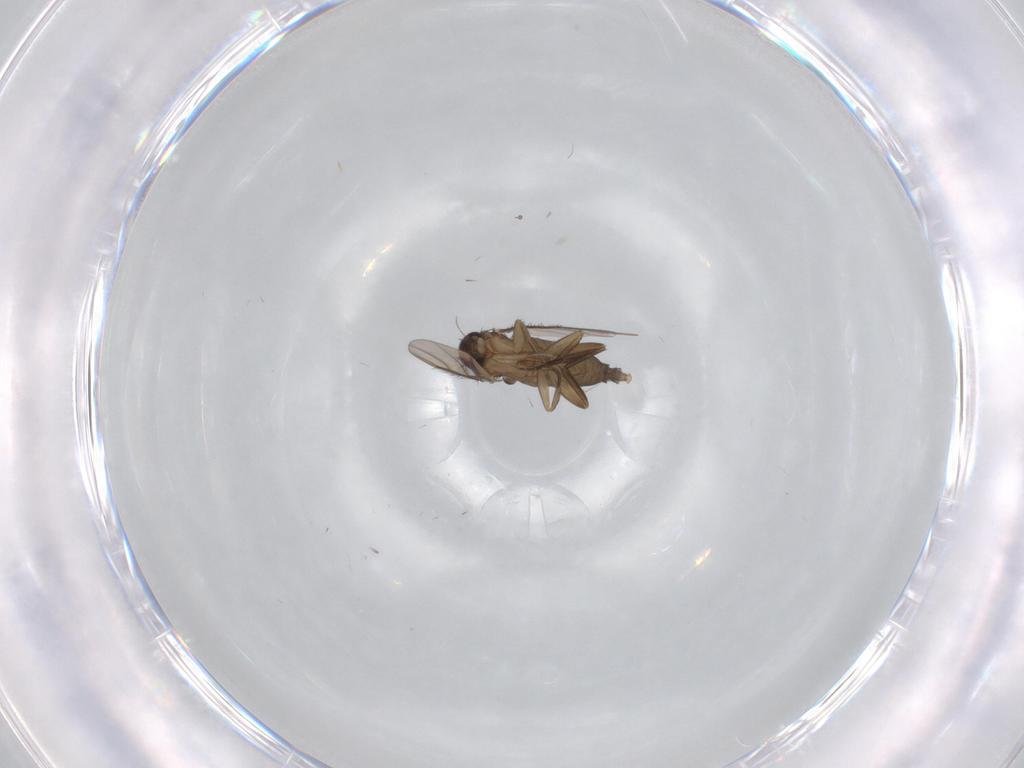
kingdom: Animalia
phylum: Arthropoda
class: Insecta
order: Diptera
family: Phoridae
